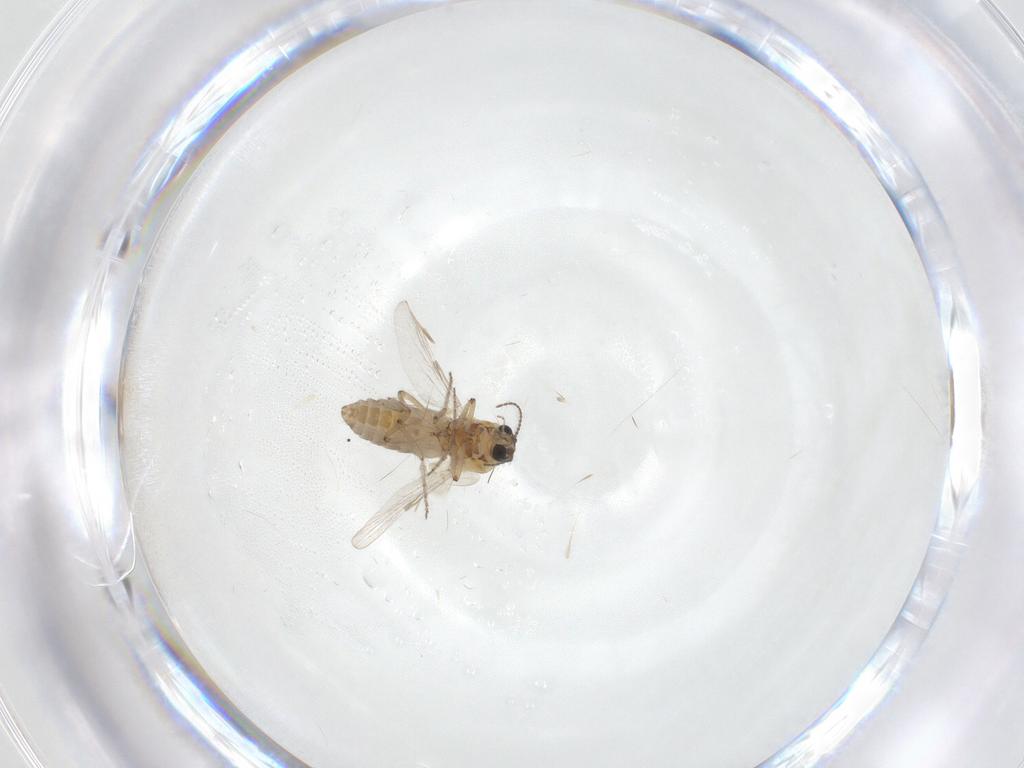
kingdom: Animalia
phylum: Arthropoda
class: Insecta
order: Diptera
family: Ceratopogonidae
